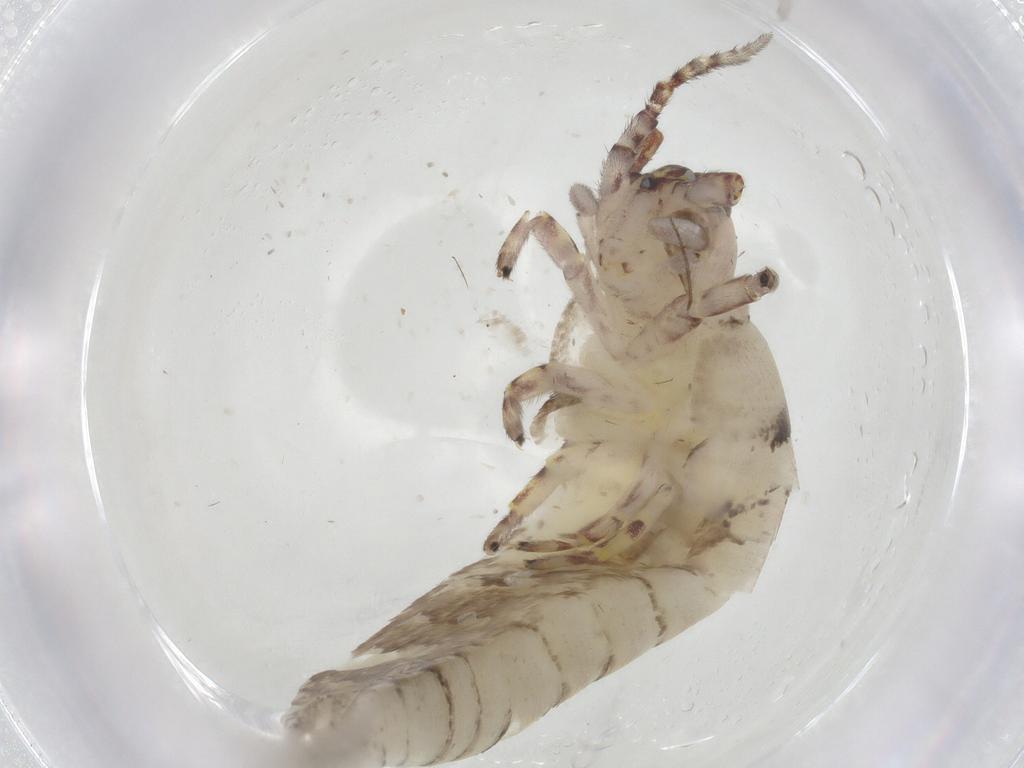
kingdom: Animalia
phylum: Arthropoda
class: Insecta
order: Archaeognatha
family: Machilidae
